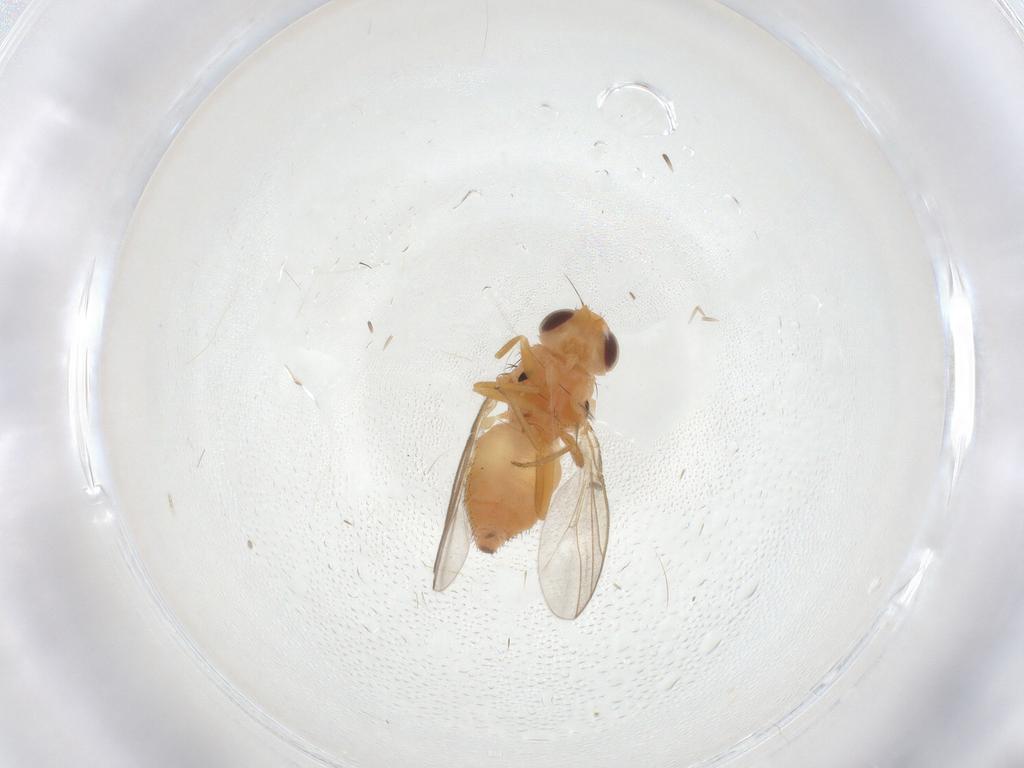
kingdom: Animalia
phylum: Arthropoda
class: Insecta
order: Diptera
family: Chloropidae
